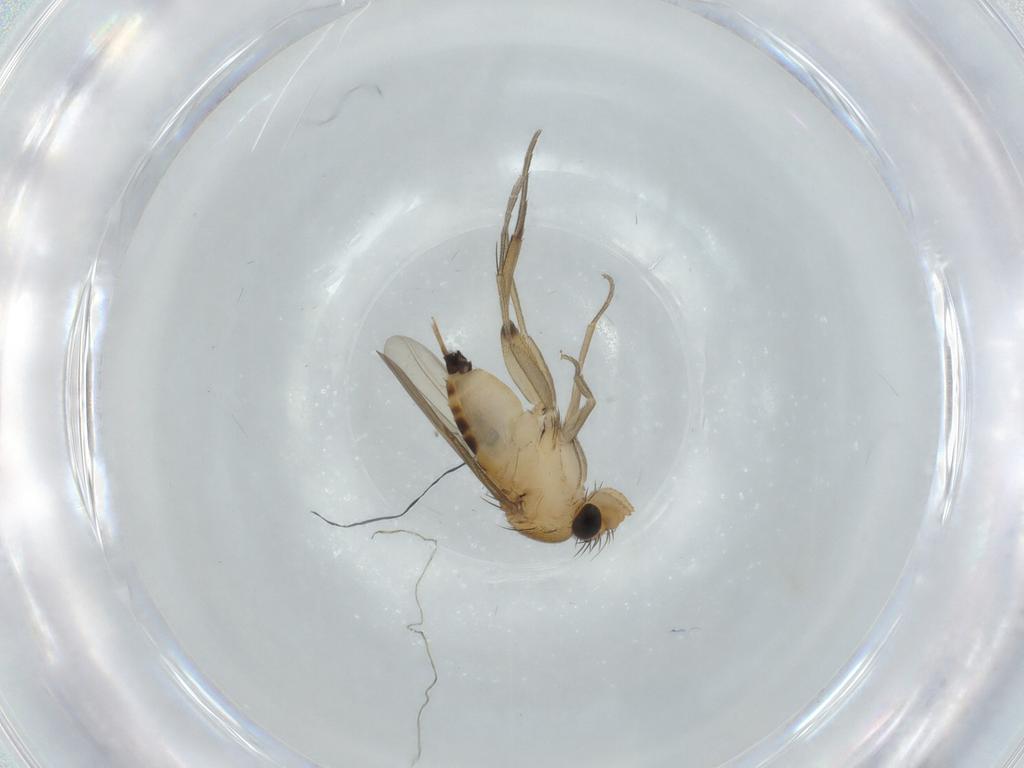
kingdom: Animalia
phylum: Arthropoda
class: Insecta
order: Diptera
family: Phoridae
